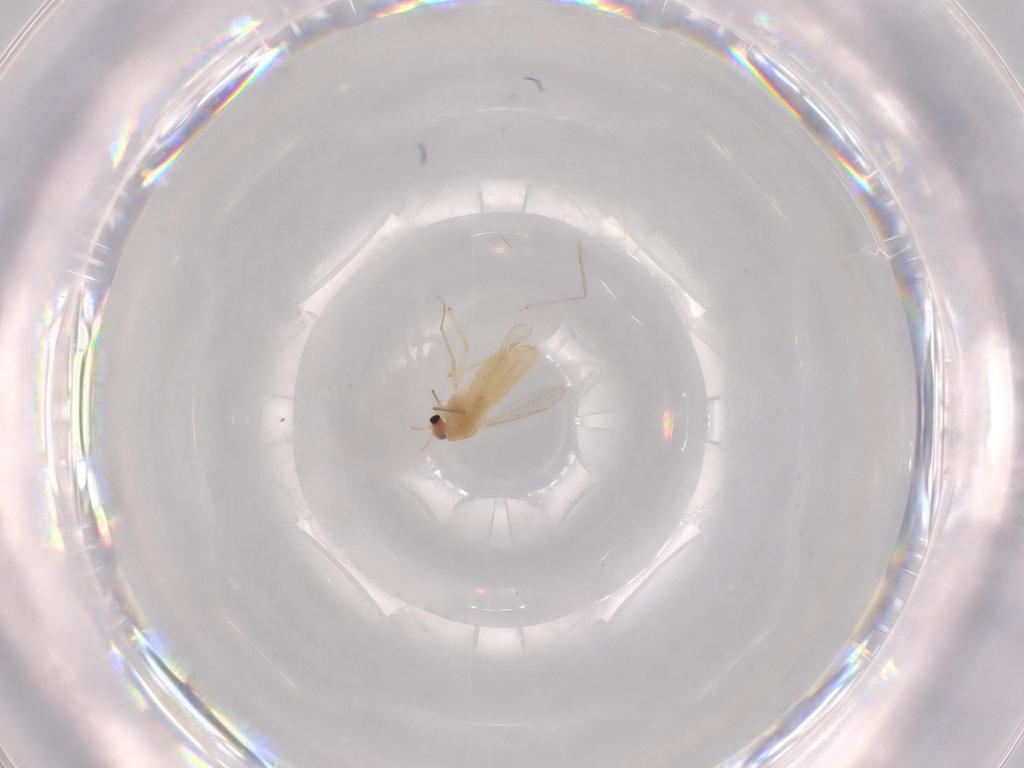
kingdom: Animalia
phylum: Arthropoda
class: Insecta
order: Diptera
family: Chironomidae
